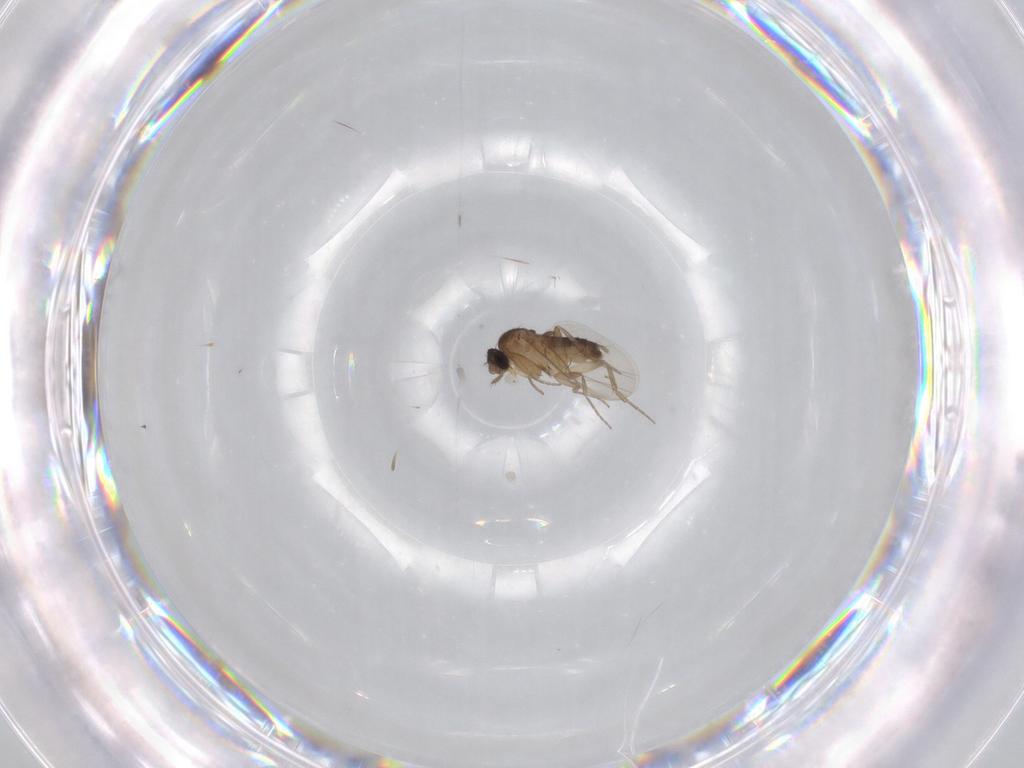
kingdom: Animalia
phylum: Arthropoda
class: Insecta
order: Diptera
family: Phoridae
